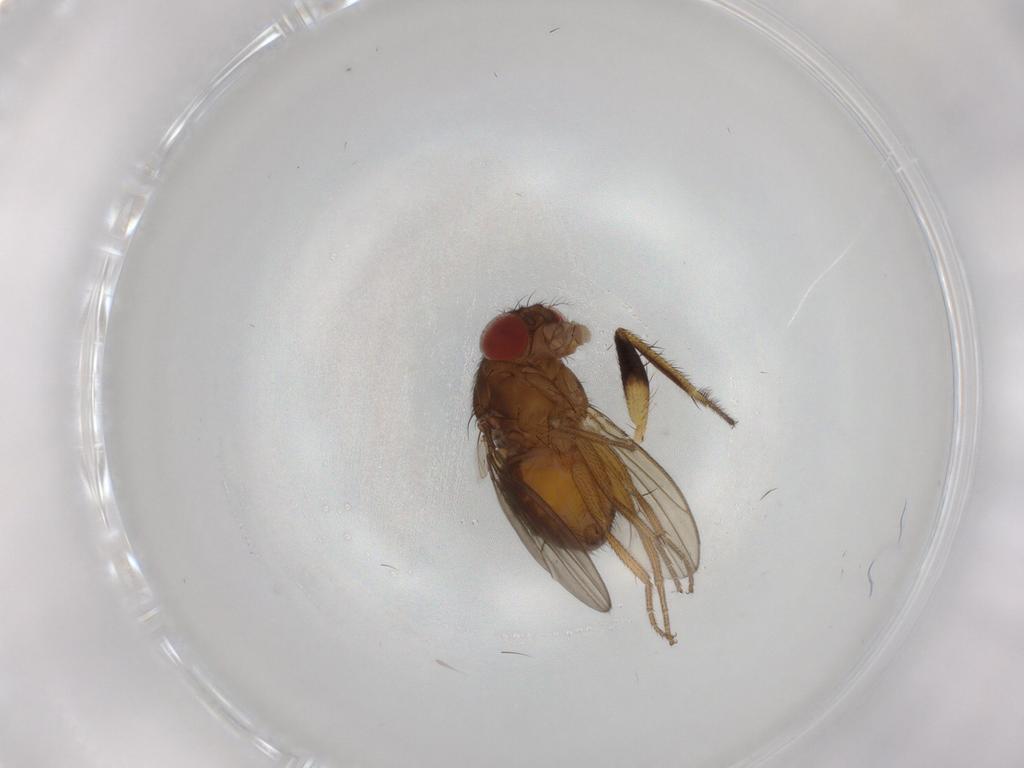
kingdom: Animalia
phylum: Arthropoda
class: Insecta
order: Diptera
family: Drosophilidae
